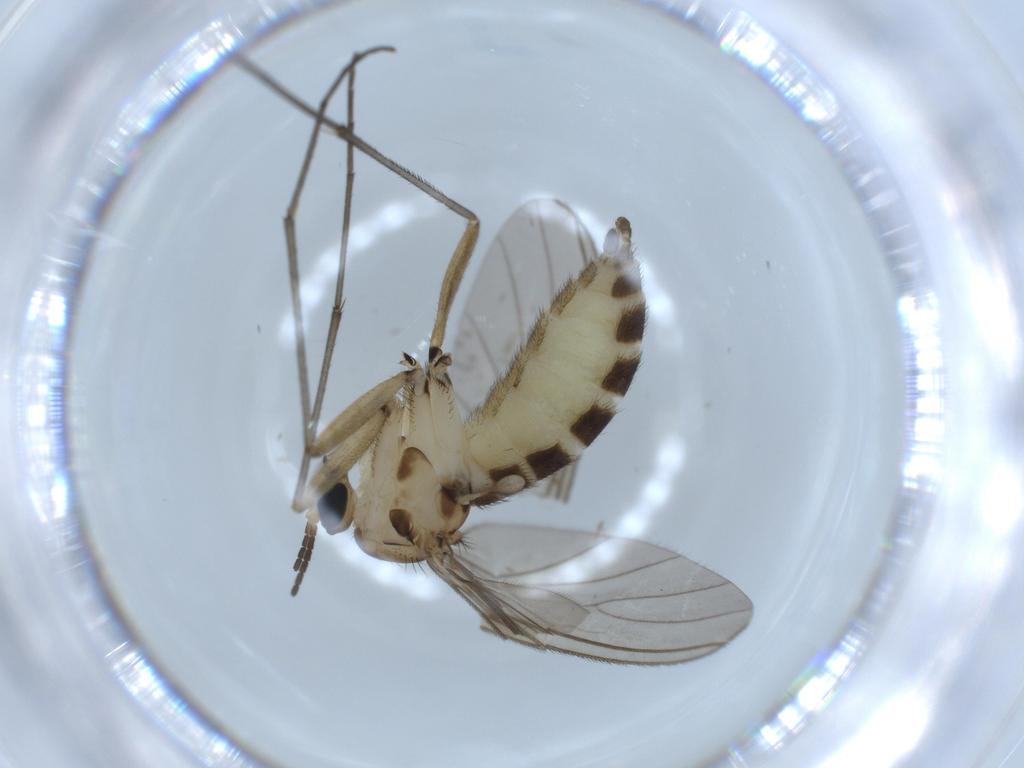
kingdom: Animalia
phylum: Arthropoda
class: Insecta
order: Diptera
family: Sciaridae
